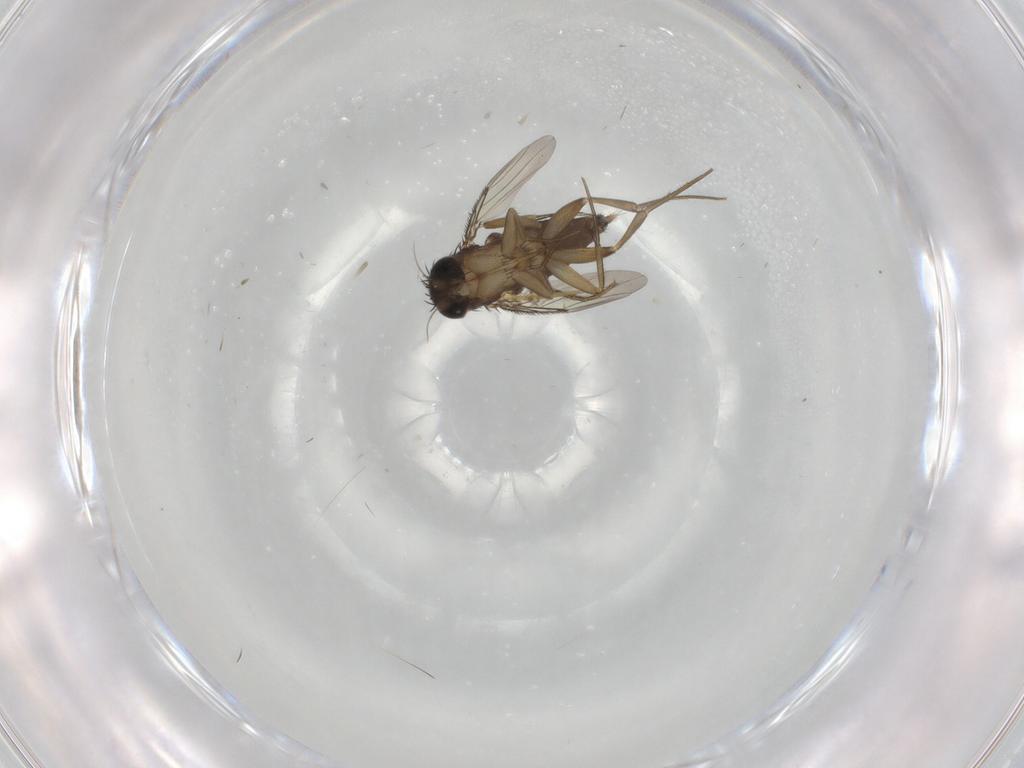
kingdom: Animalia
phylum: Arthropoda
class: Insecta
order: Diptera
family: Phoridae
